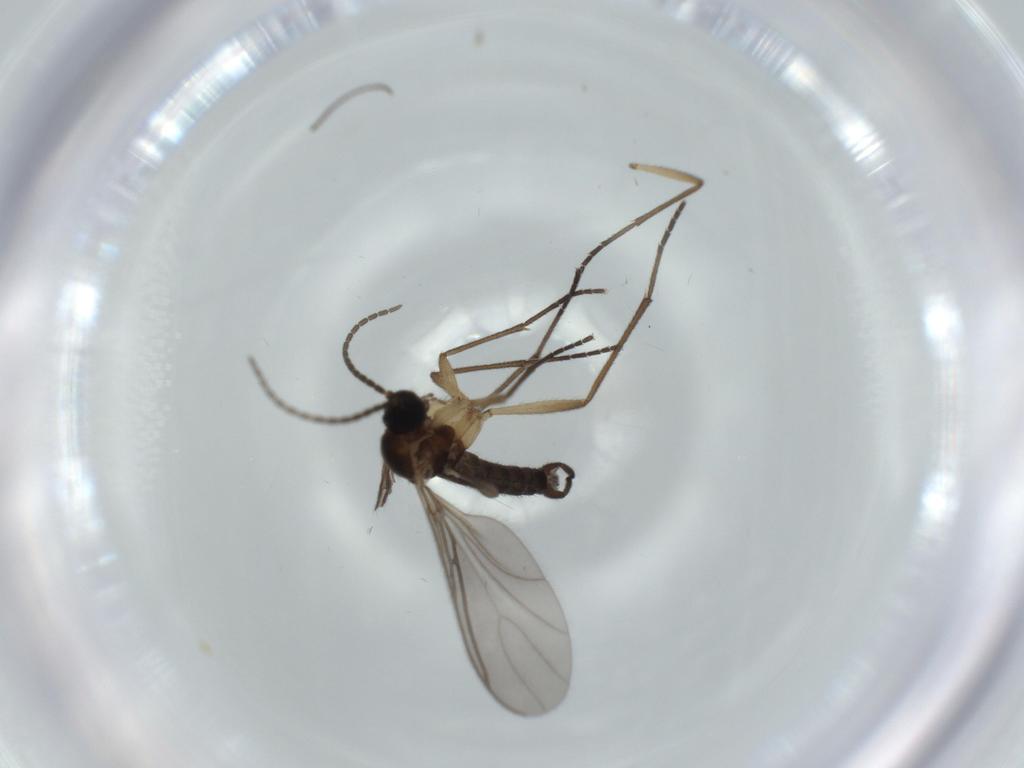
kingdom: Animalia
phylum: Arthropoda
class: Insecta
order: Diptera
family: Sciaridae
